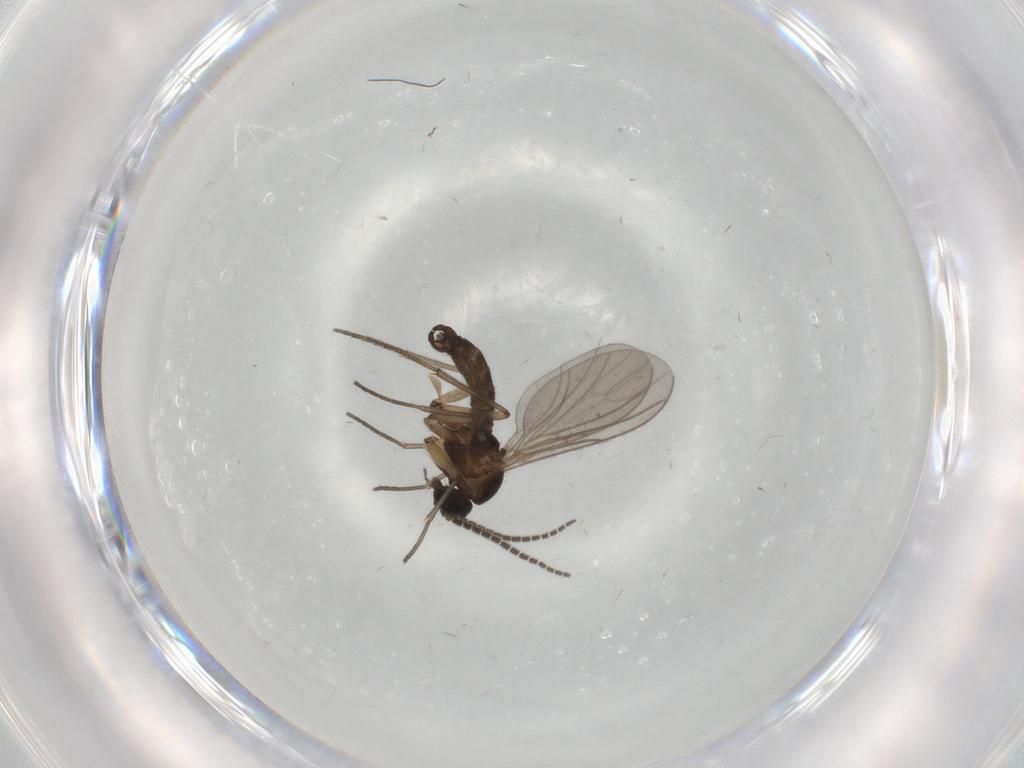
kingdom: Animalia
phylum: Arthropoda
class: Insecta
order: Diptera
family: Sciaridae
